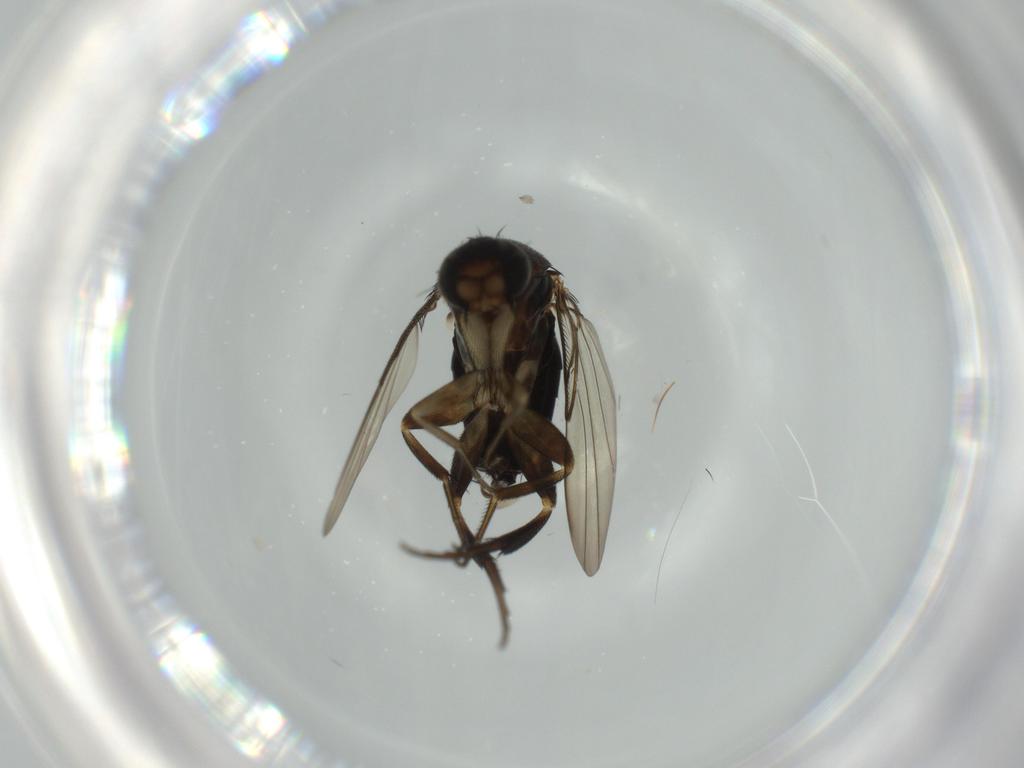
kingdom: Animalia
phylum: Arthropoda
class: Insecta
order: Diptera
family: Phoridae
